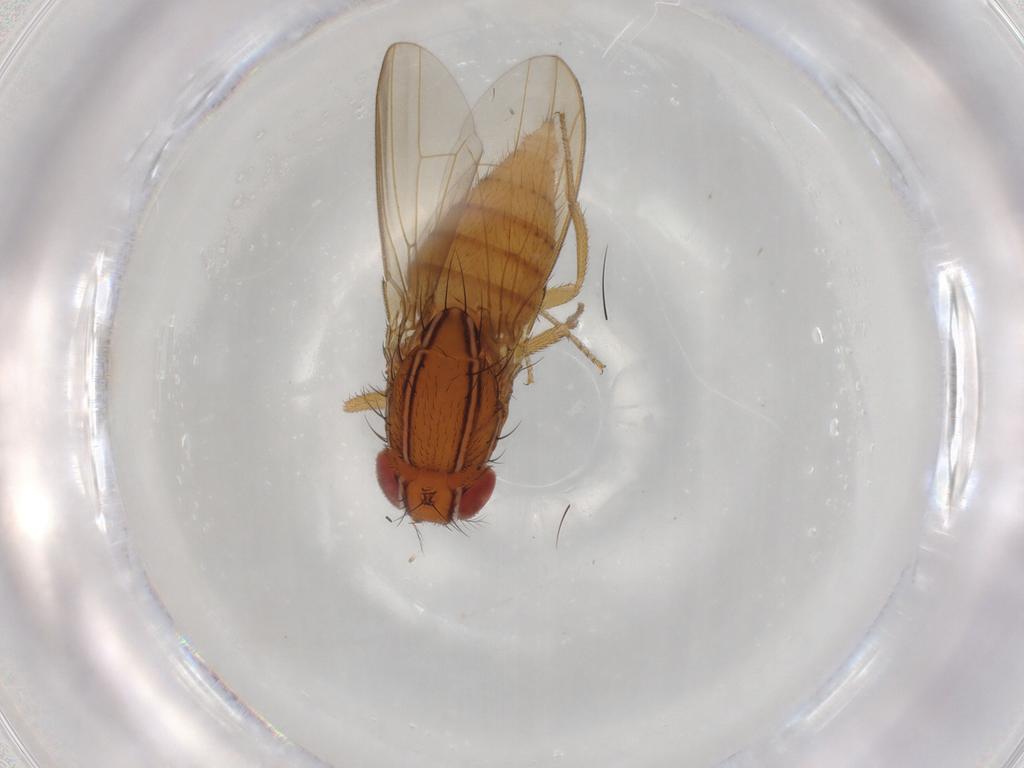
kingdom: Animalia
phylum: Arthropoda
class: Insecta
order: Diptera
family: Drosophilidae
